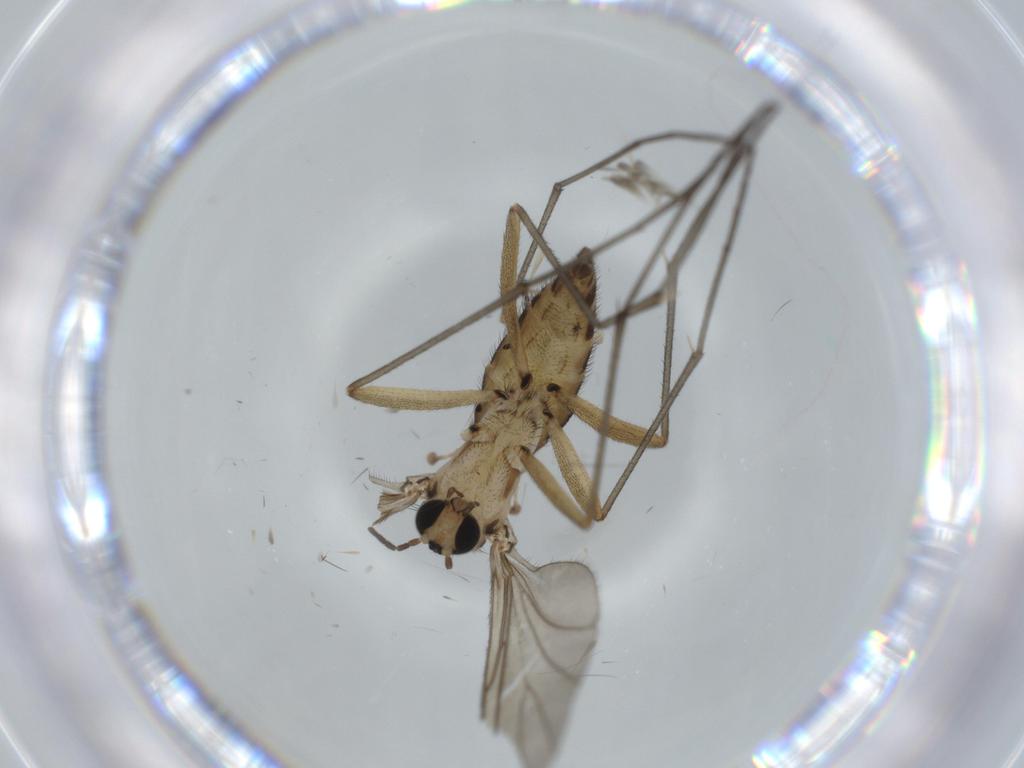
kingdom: Animalia
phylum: Arthropoda
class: Insecta
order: Diptera
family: Sciaridae
